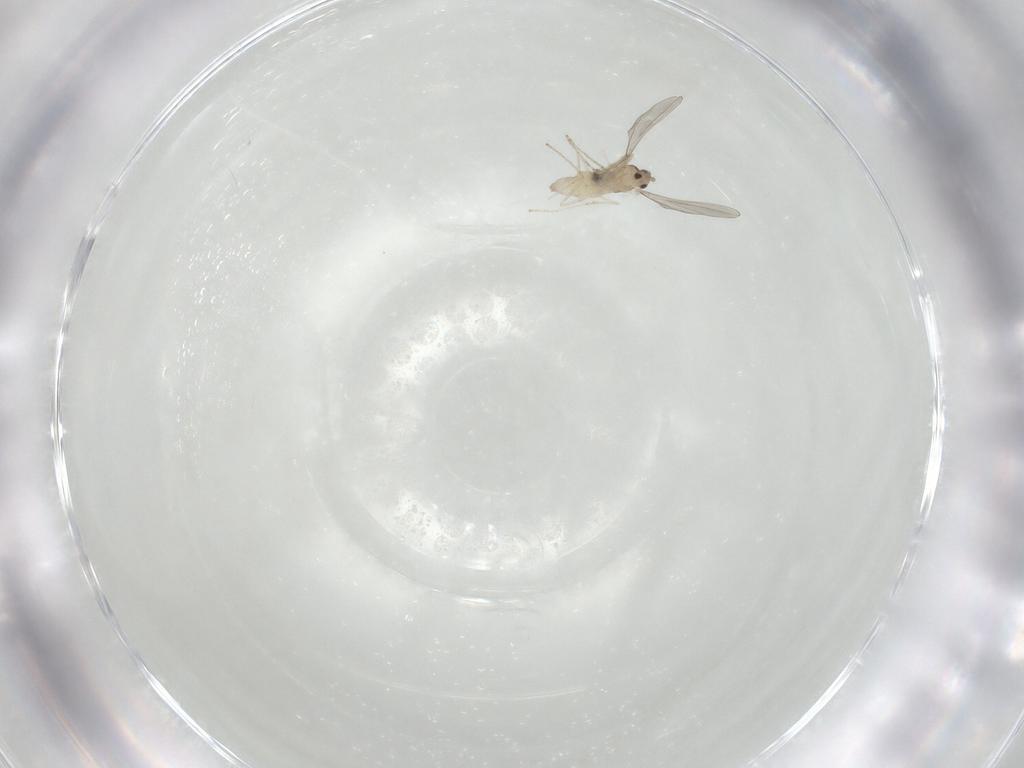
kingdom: Animalia
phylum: Arthropoda
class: Insecta
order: Diptera
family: Cecidomyiidae
